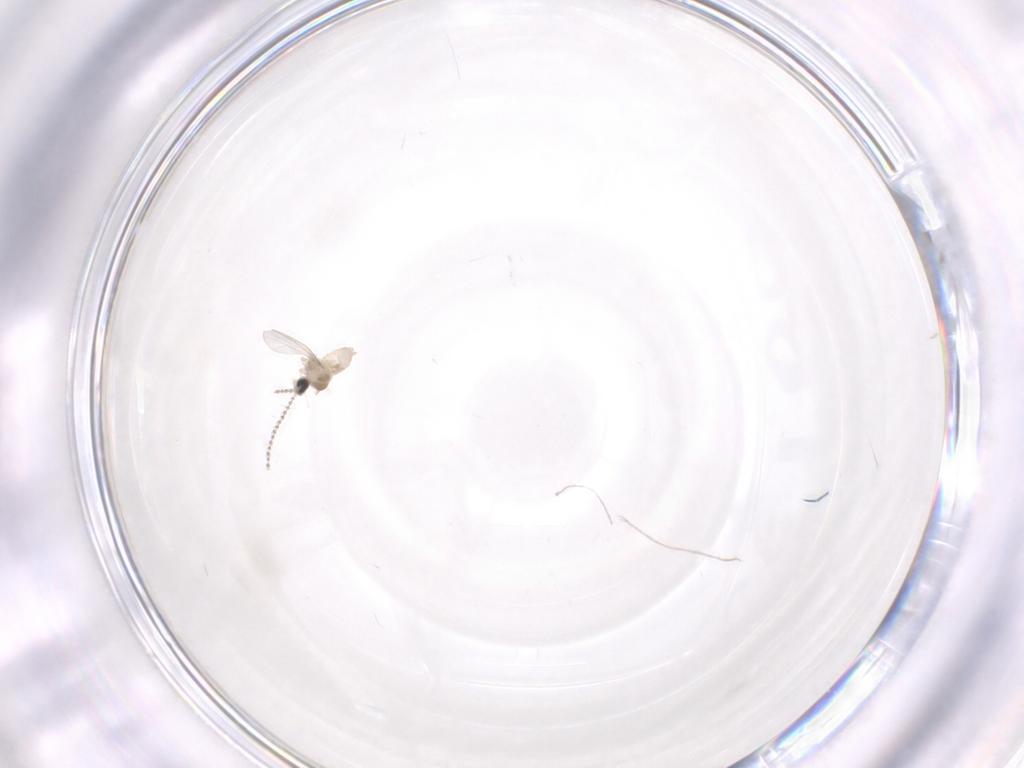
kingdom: Animalia
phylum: Arthropoda
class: Insecta
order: Diptera
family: Cecidomyiidae
